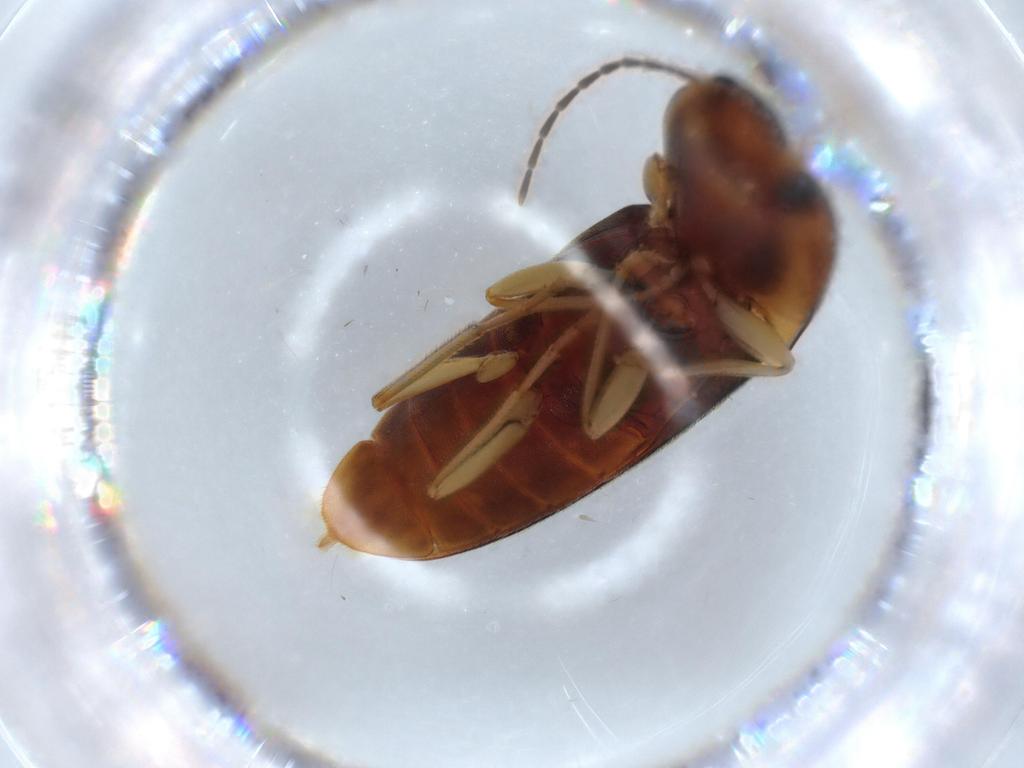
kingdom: Animalia
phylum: Arthropoda
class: Insecta
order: Coleoptera
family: Elateridae
